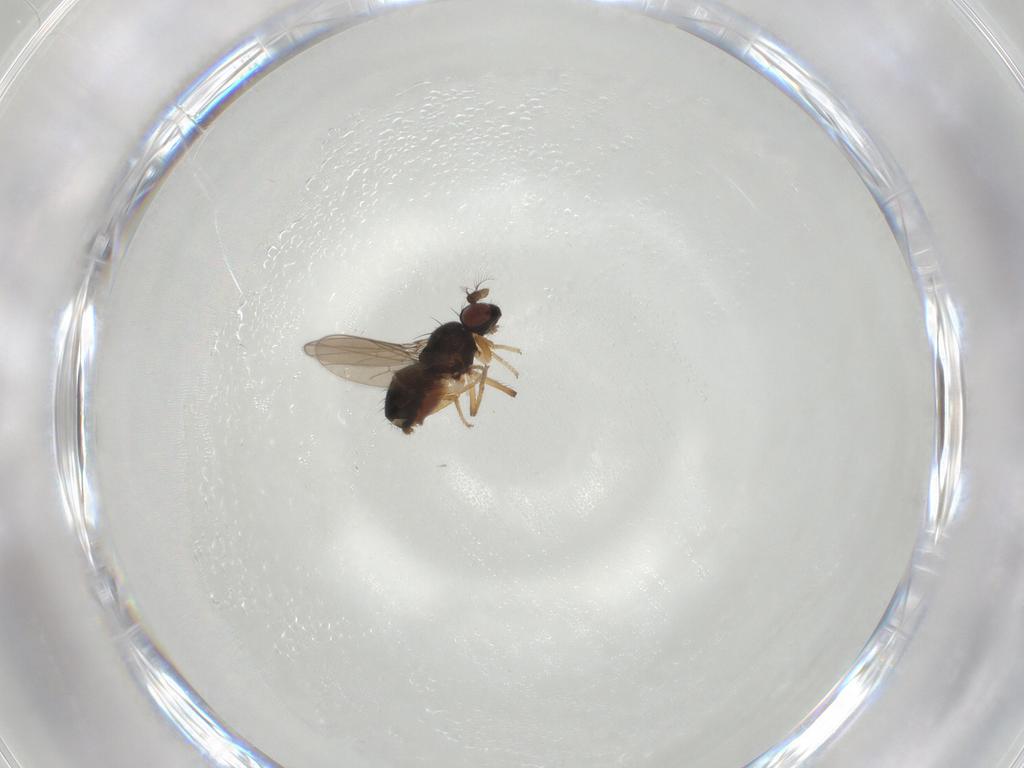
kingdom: Animalia
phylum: Arthropoda
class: Insecta
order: Diptera
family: Ephydridae
